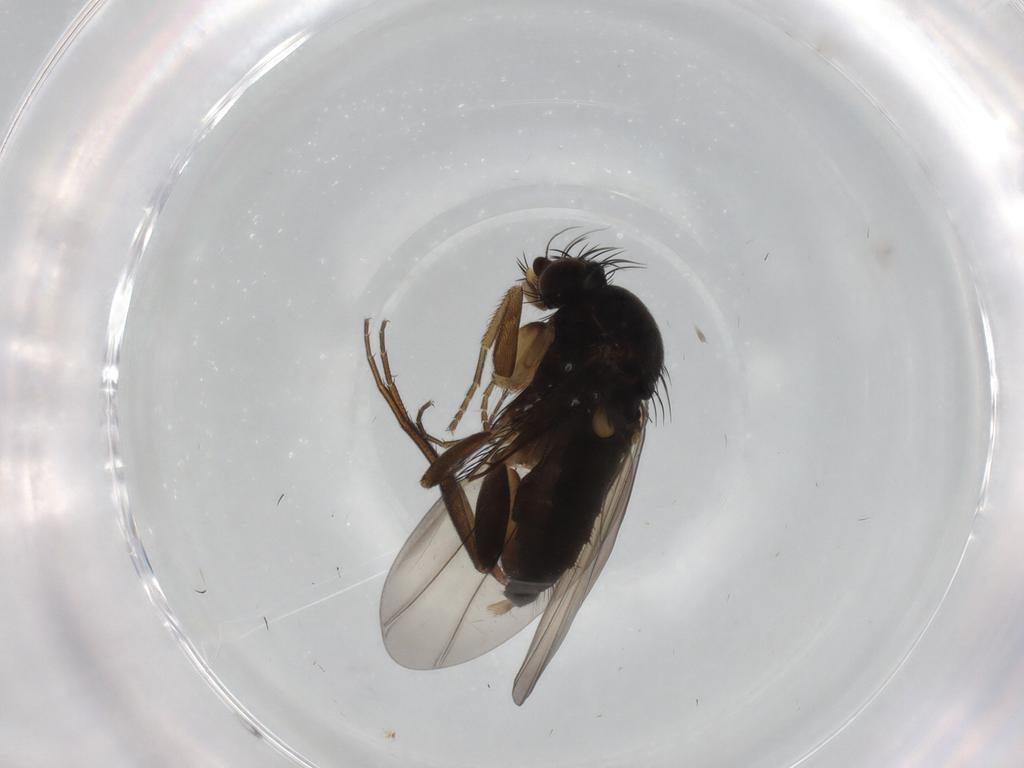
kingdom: Animalia
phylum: Arthropoda
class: Insecta
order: Diptera
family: Phoridae
